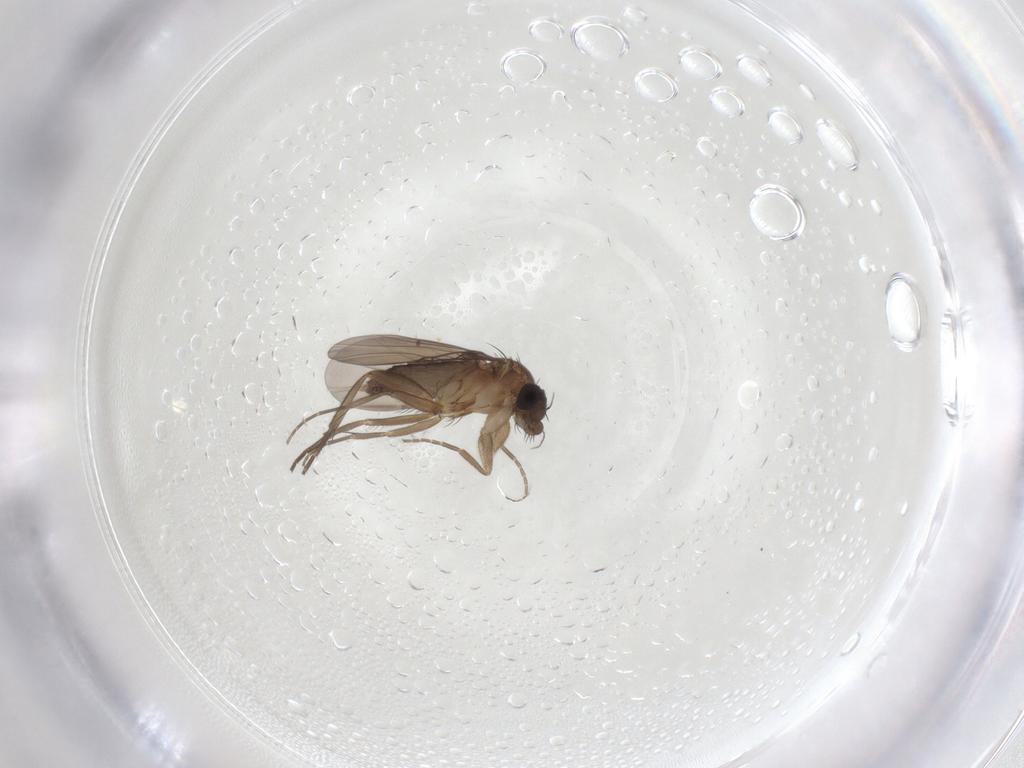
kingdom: Animalia
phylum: Arthropoda
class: Insecta
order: Diptera
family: Phoridae
